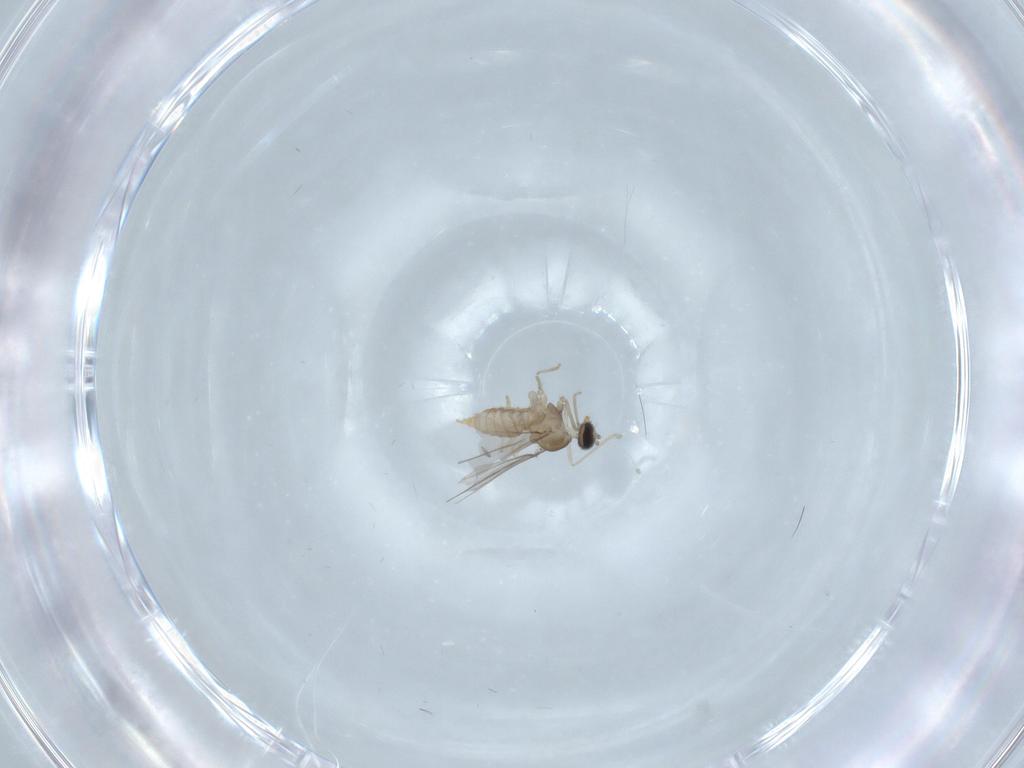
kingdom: Animalia
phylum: Arthropoda
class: Insecta
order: Diptera
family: Cecidomyiidae
